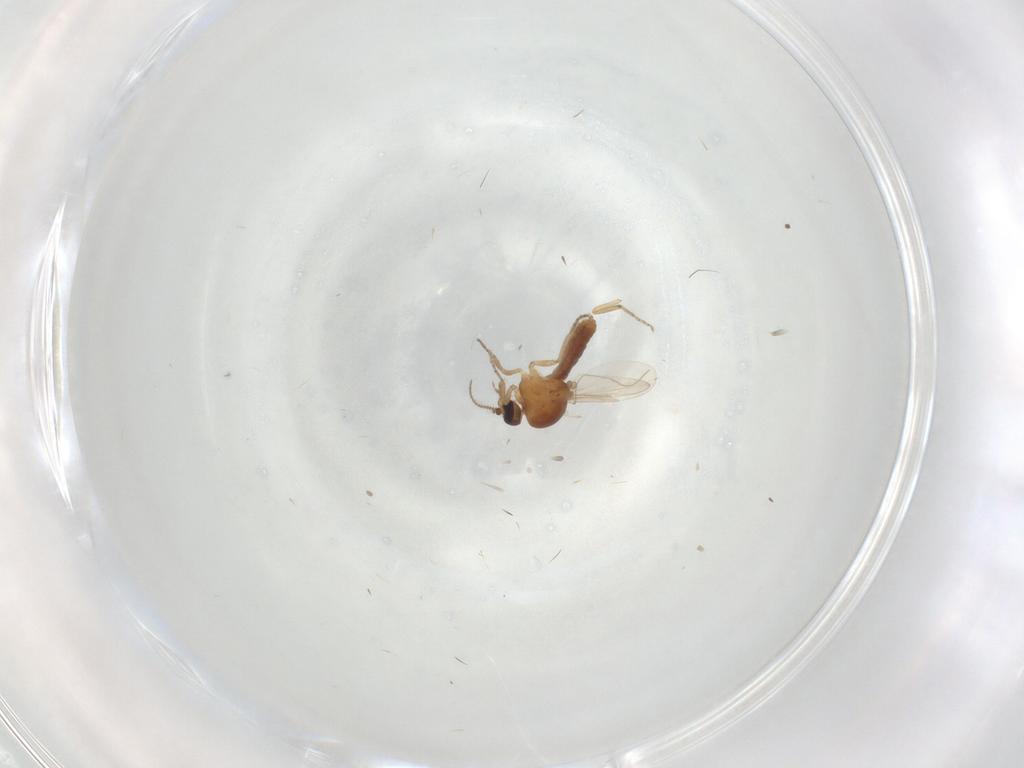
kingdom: Animalia
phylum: Arthropoda
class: Insecta
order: Diptera
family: Ceratopogonidae
